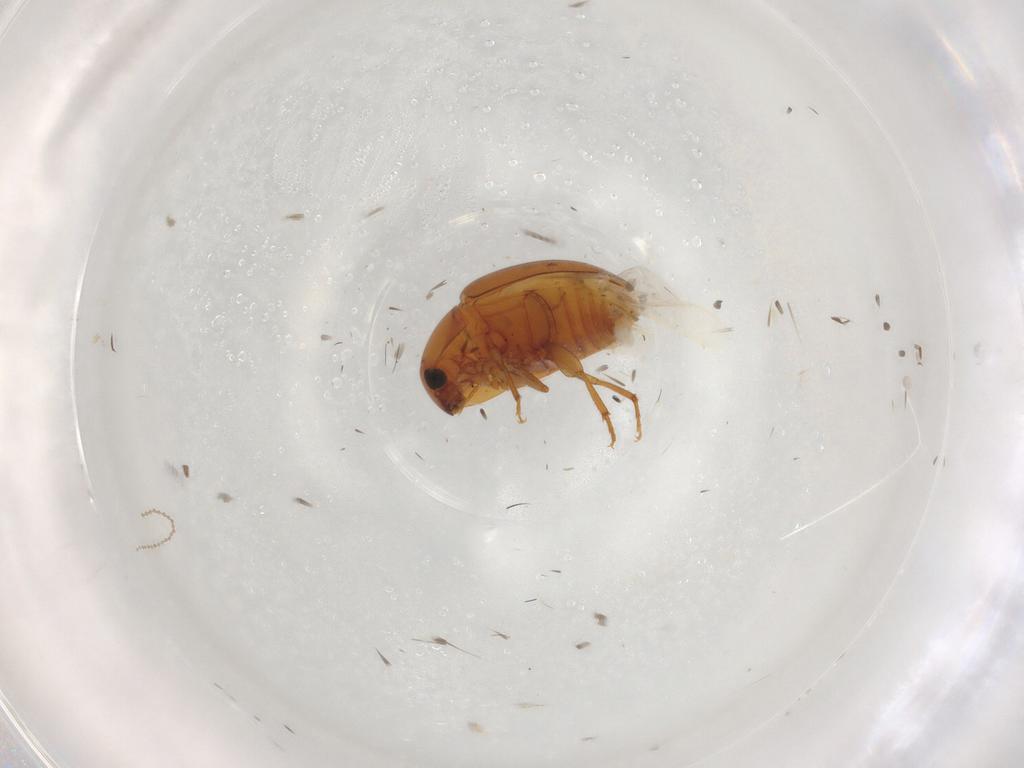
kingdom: Animalia
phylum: Arthropoda
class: Insecta
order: Coleoptera
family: Phalacridae
